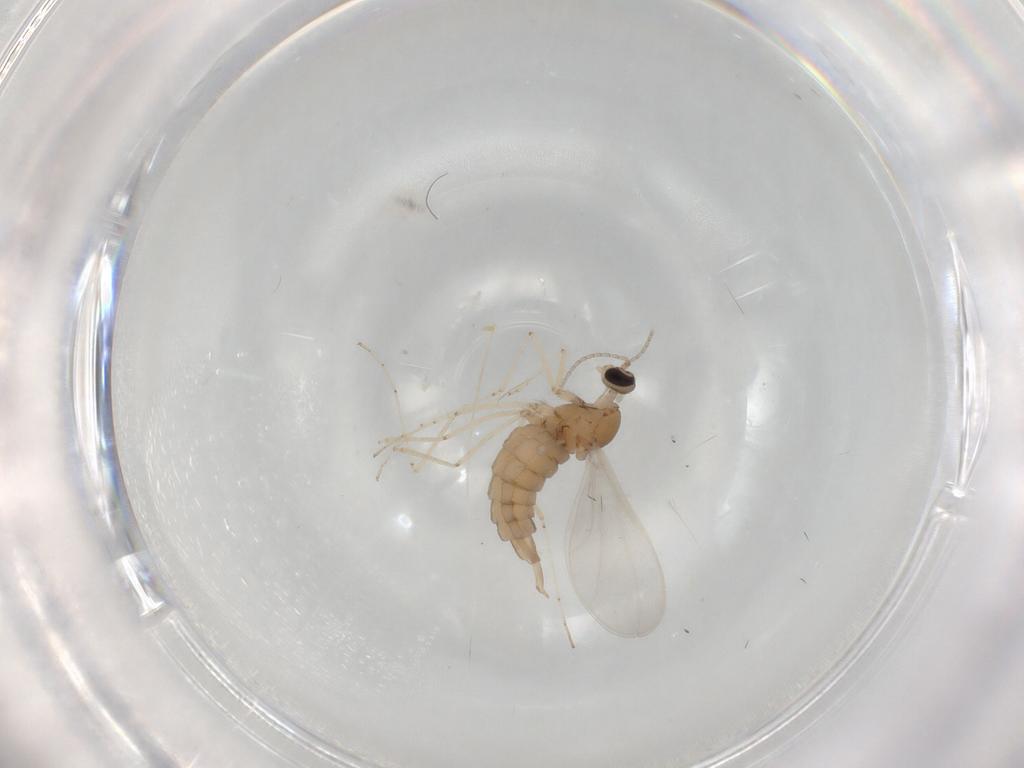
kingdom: Animalia
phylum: Arthropoda
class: Insecta
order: Diptera
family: Cecidomyiidae
